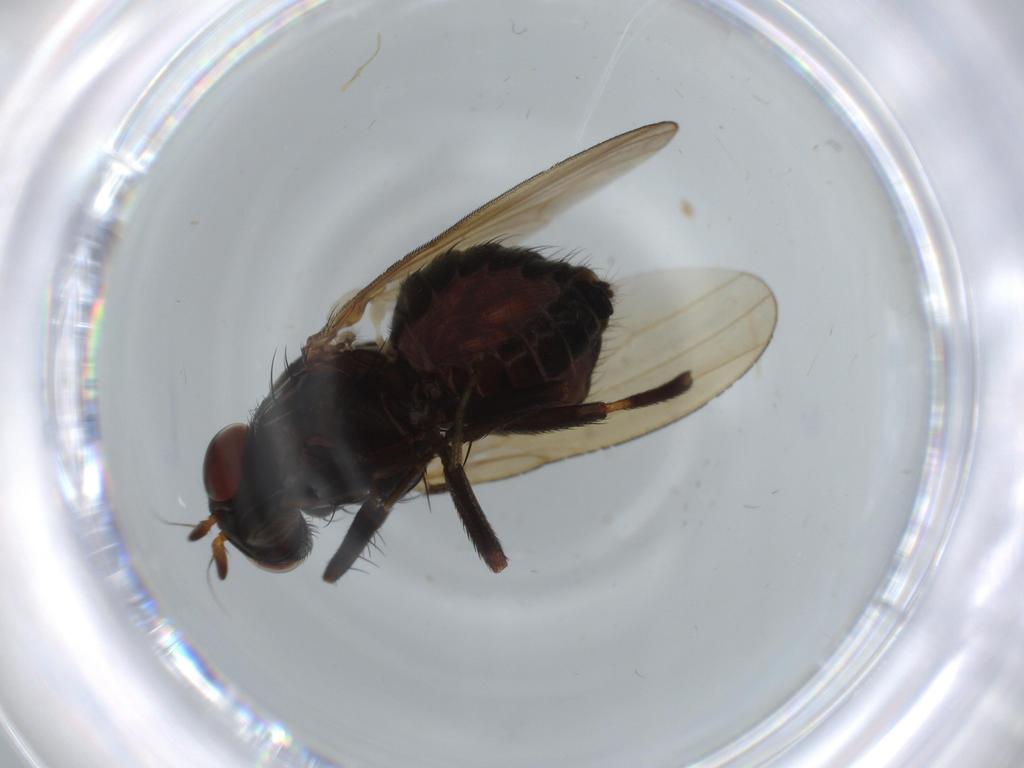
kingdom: Animalia
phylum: Arthropoda
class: Insecta
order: Diptera
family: Lauxaniidae
